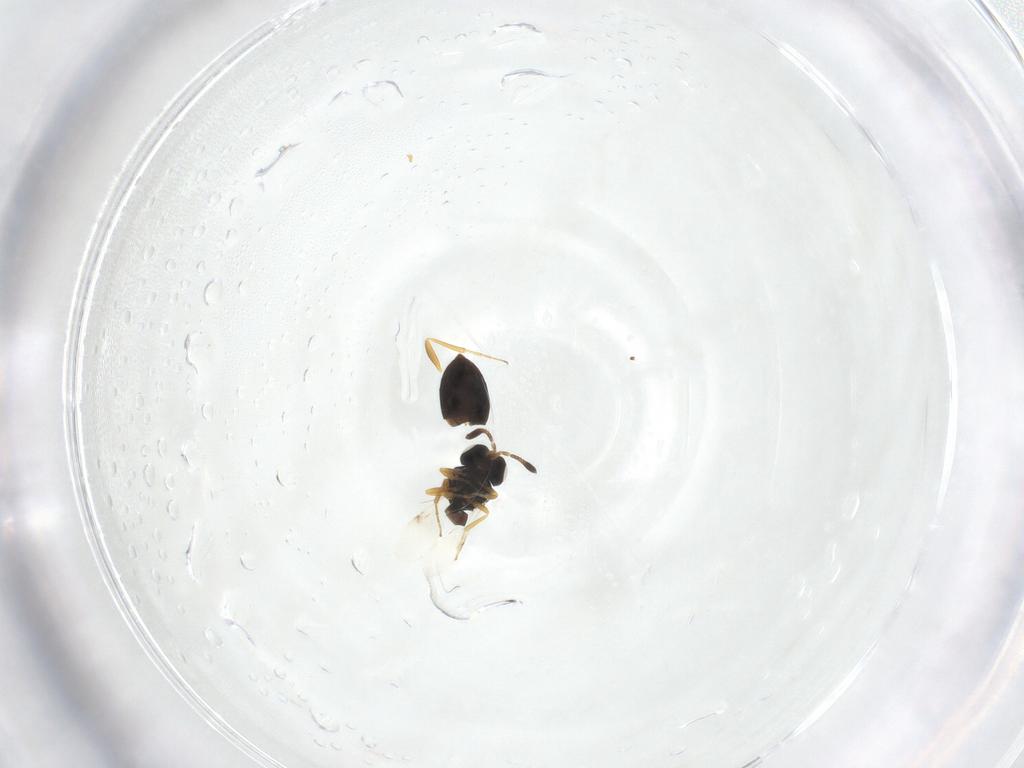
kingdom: Animalia
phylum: Arthropoda
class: Insecta
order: Hymenoptera
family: Scelionidae
